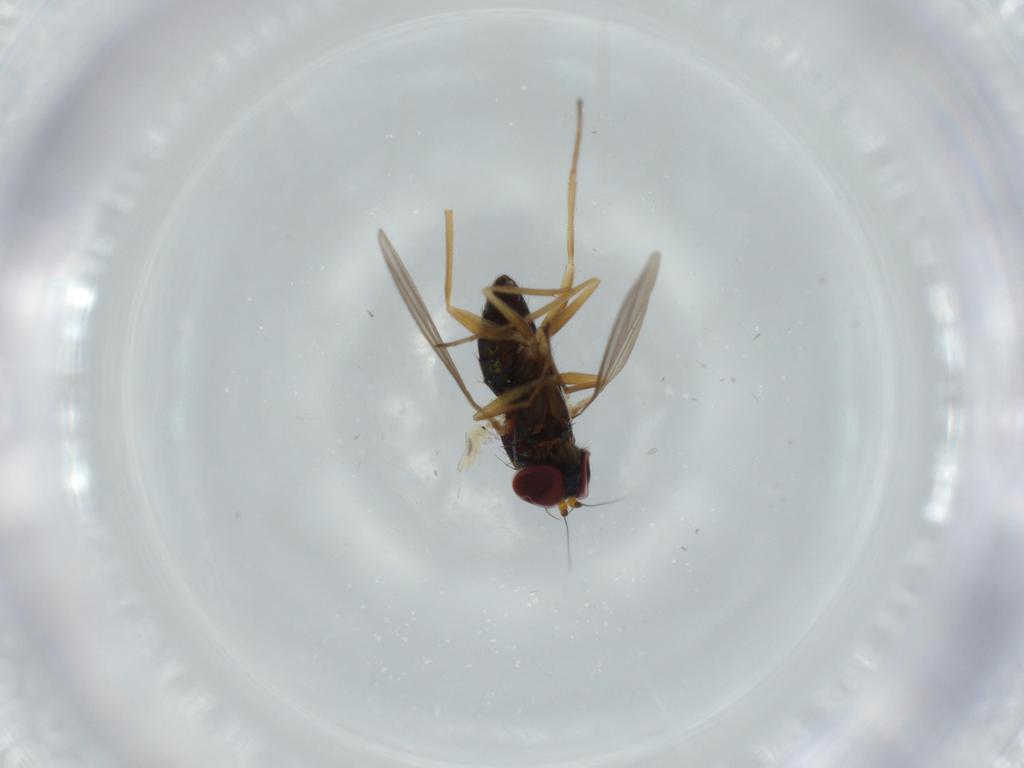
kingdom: Animalia
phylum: Arthropoda
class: Insecta
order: Diptera
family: Dolichopodidae
